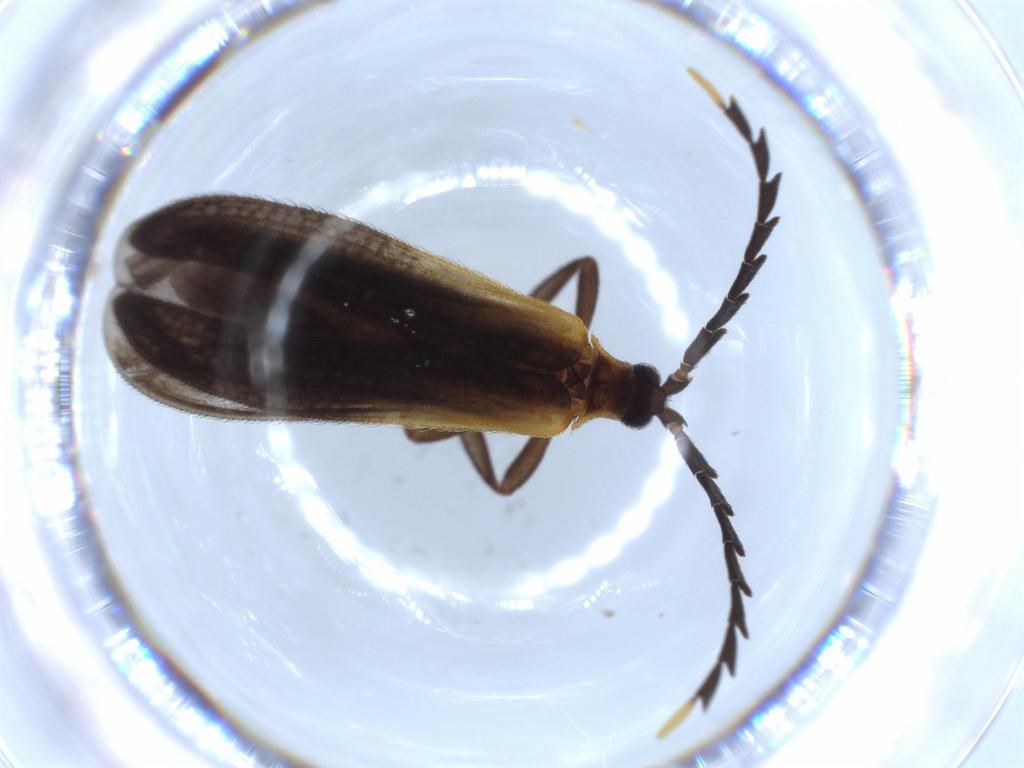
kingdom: Animalia
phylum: Arthropoda
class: Insecta
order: Coleoptera
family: Lycidae
